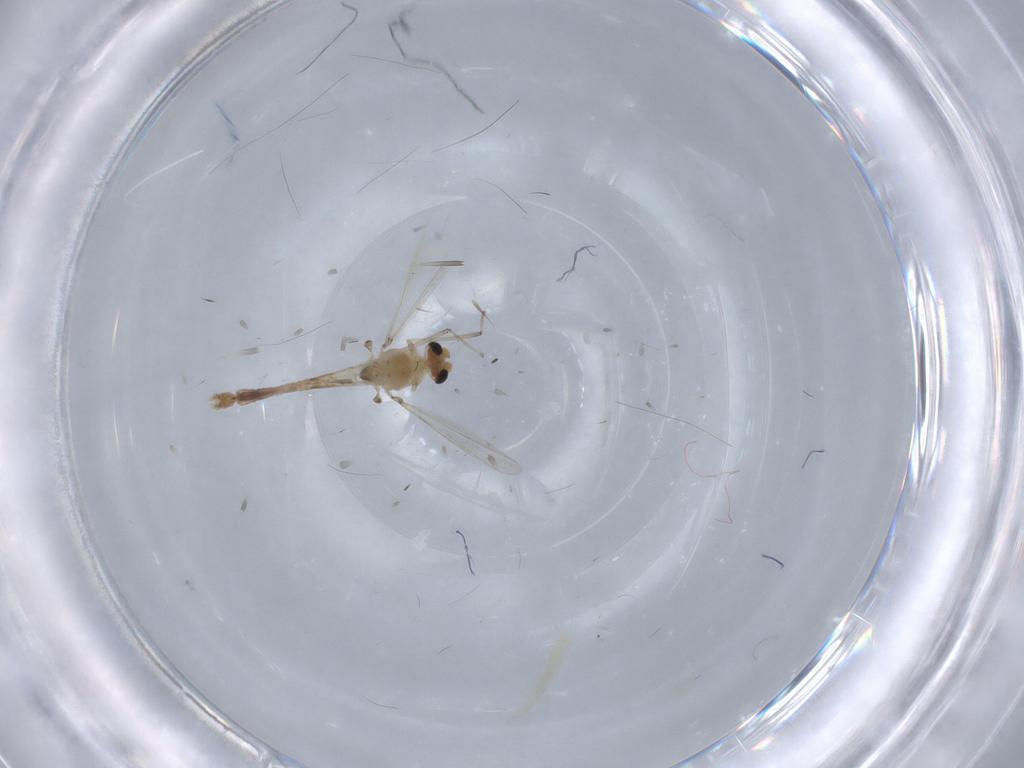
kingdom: Animalia
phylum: Arthropoda
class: Insecta
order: Diptera
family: Chironomidae
